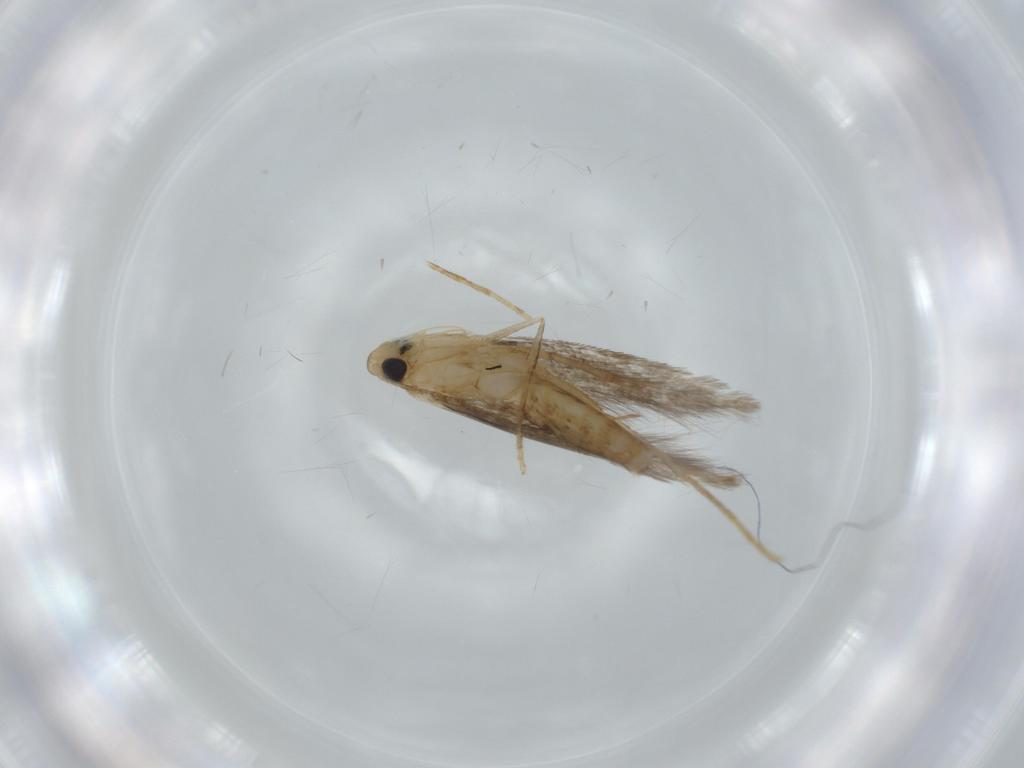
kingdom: Animalia
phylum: Arthropoda
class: Insecta
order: Lepidoptera
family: Tischeriidae
